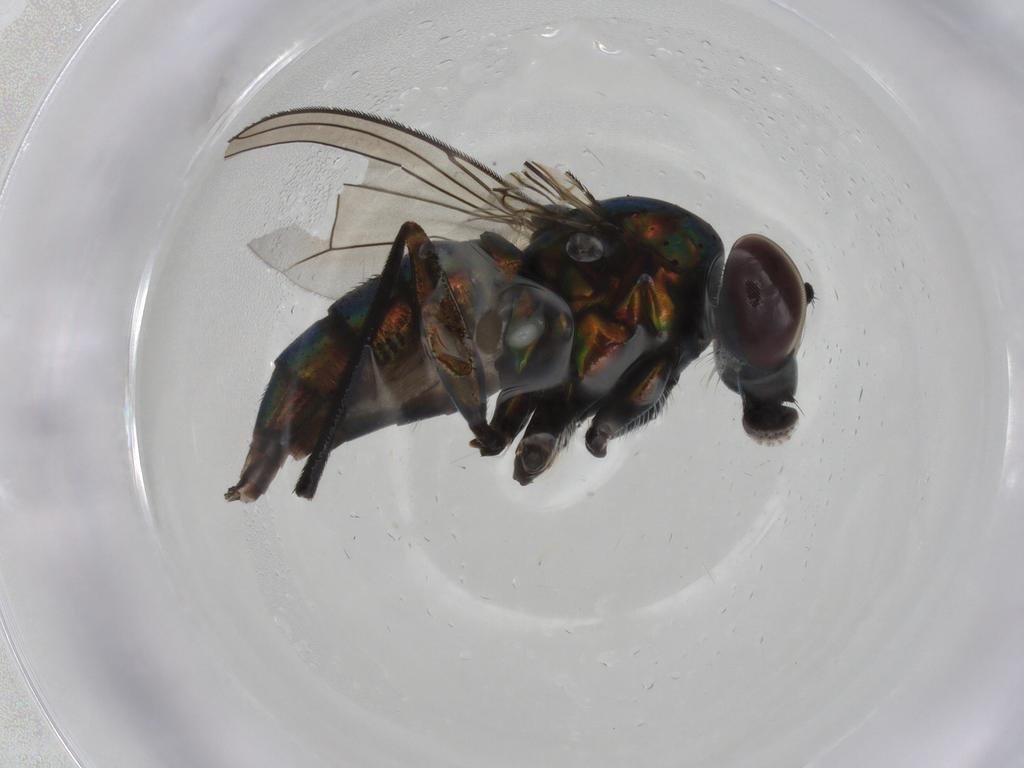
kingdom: Animalia
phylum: Arthropoda
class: Insecta
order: Diptera
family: Dolichopodidae
